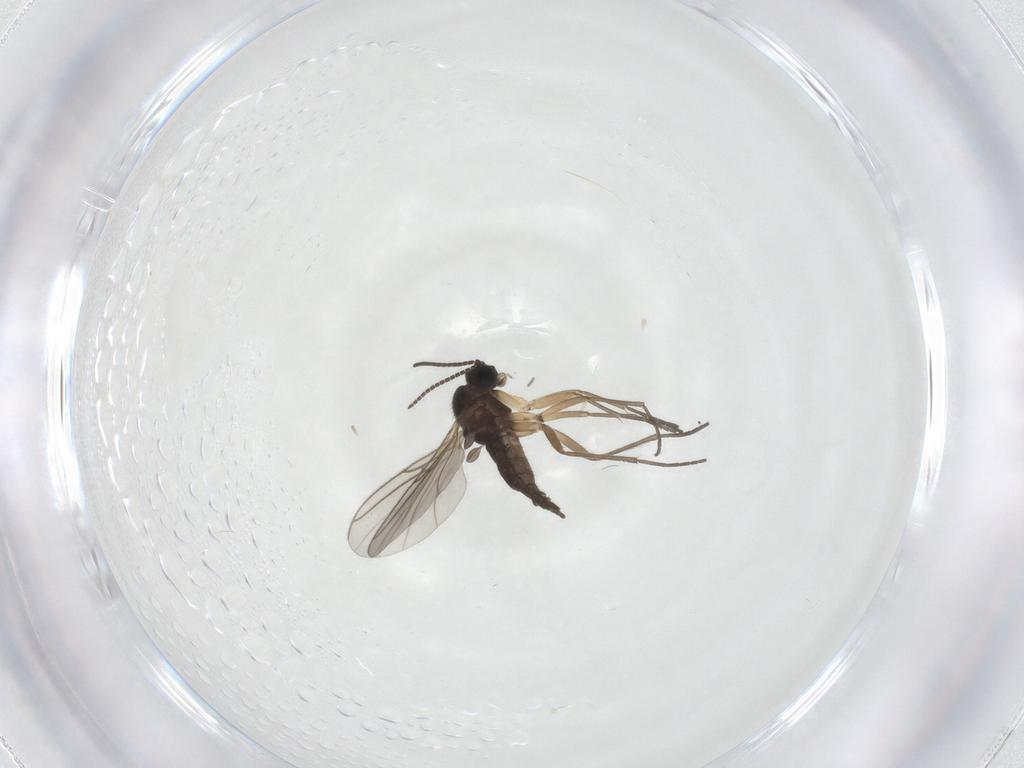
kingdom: Animalia
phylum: Arthropoda
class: Insecta
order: Diptera
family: Sciaridae
